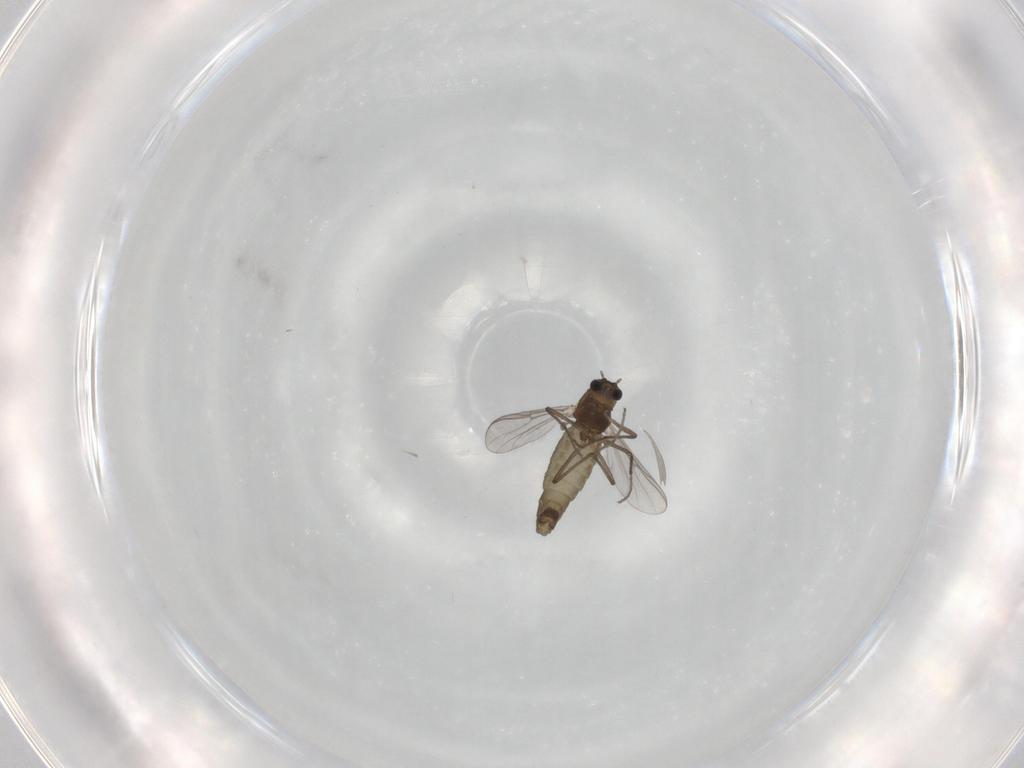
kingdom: Animalia
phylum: Arthropoda
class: Insecta
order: Diptera
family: Chironomidae
